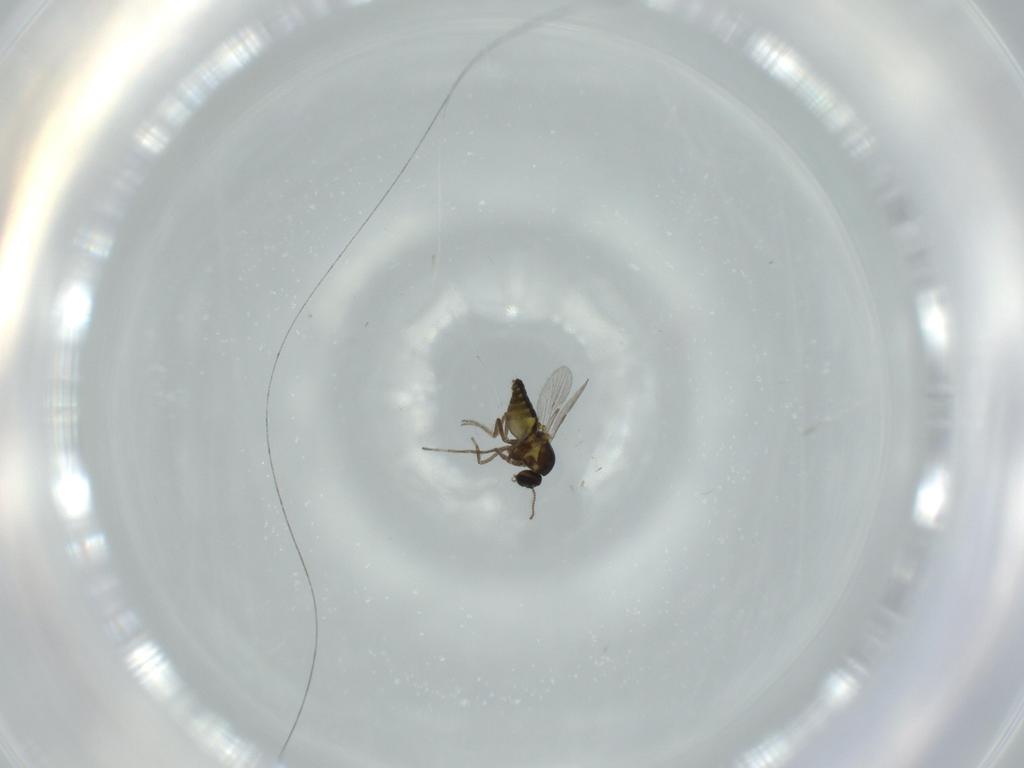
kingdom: Animalia
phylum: Arthropoda
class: Insecta
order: Diptera
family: Ceratopogonidae
